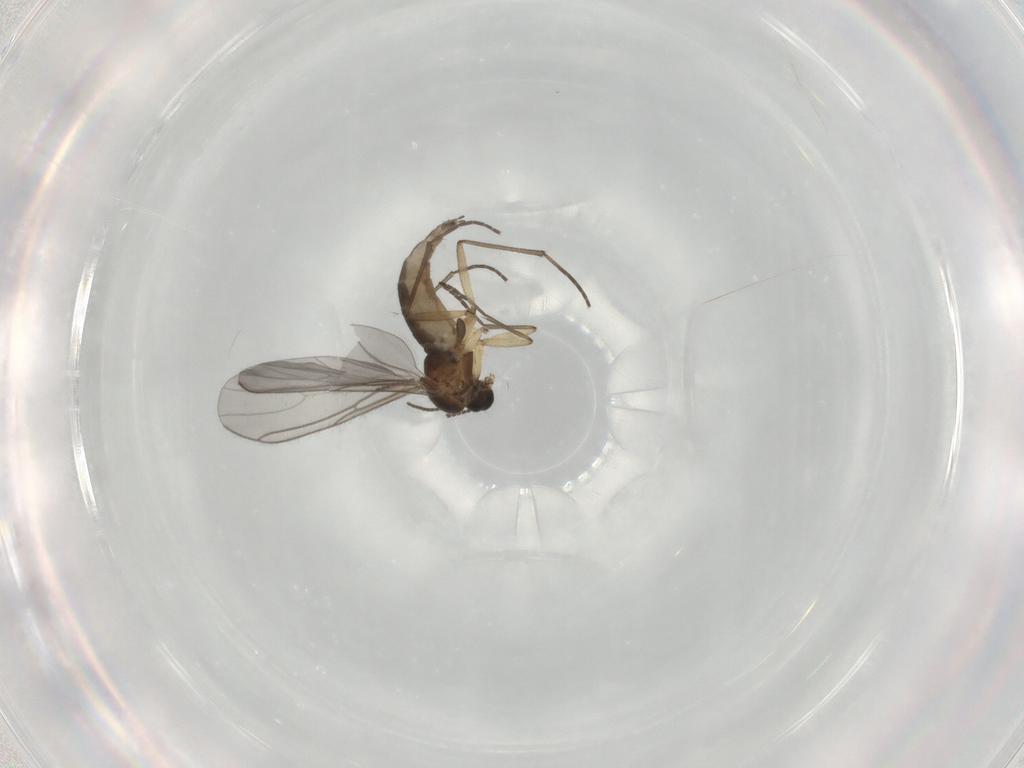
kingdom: Animalia
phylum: Arthropoda
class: Insecta
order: Diptera
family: Sciaridae
